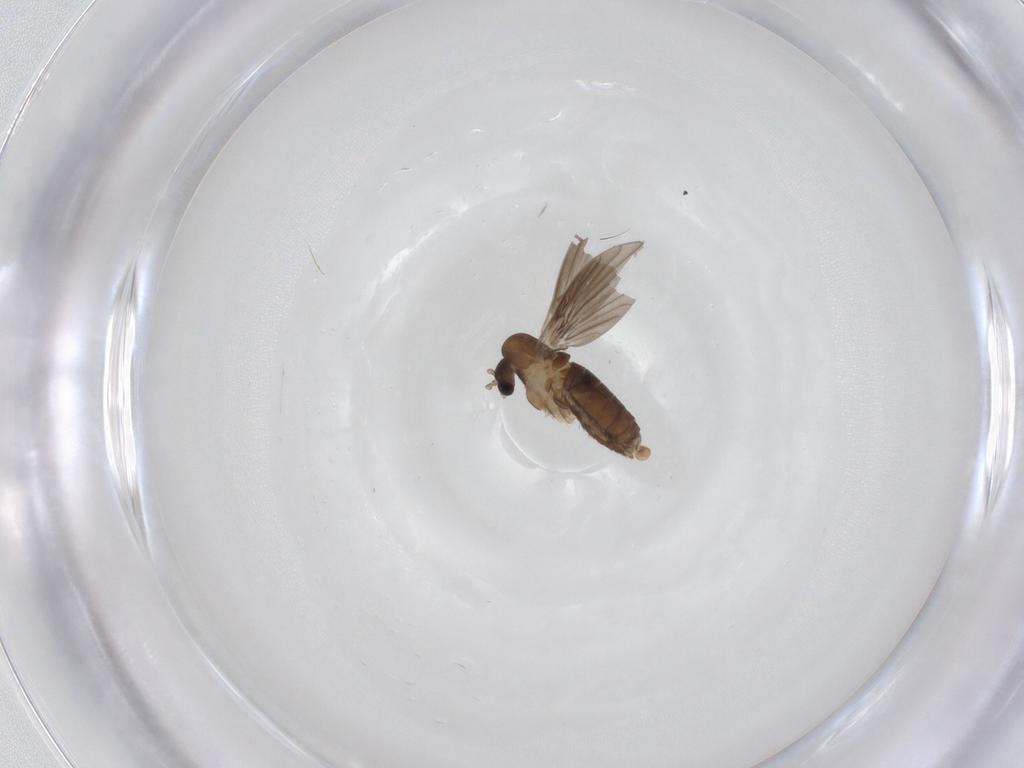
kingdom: Animalia
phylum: Arthropoda
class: Insecta
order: Diptera
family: Cecidomyiidae
